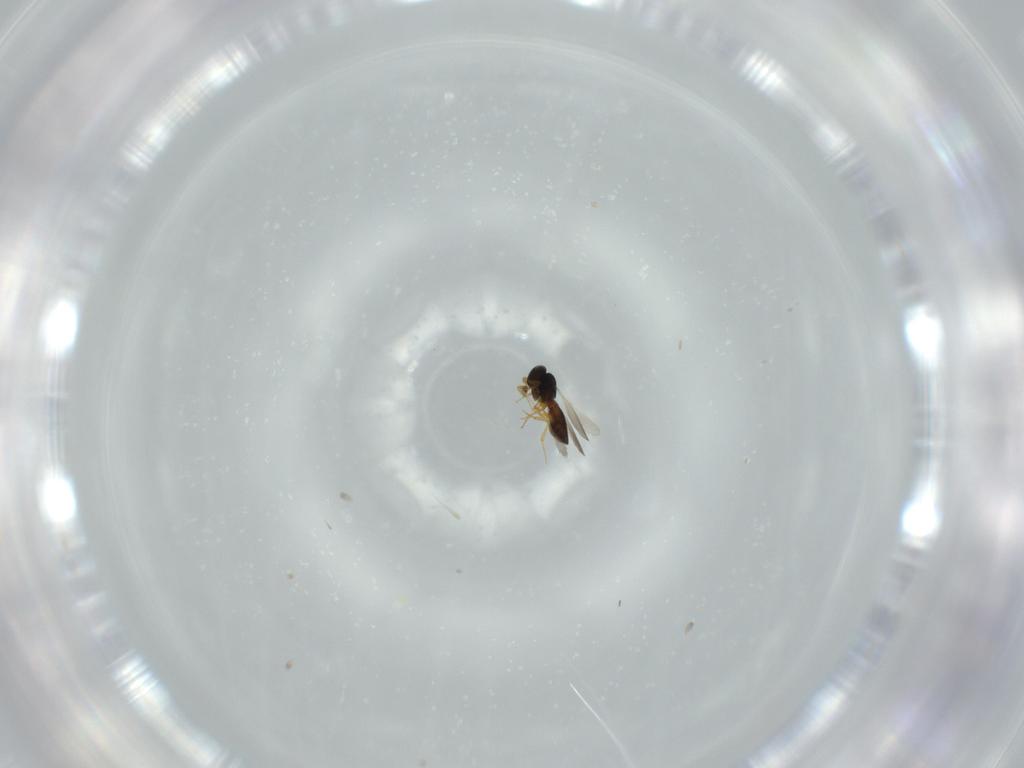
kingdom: Animalia
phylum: Arthropoda
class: Insecta
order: Hymenoptera
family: Platygastridae
